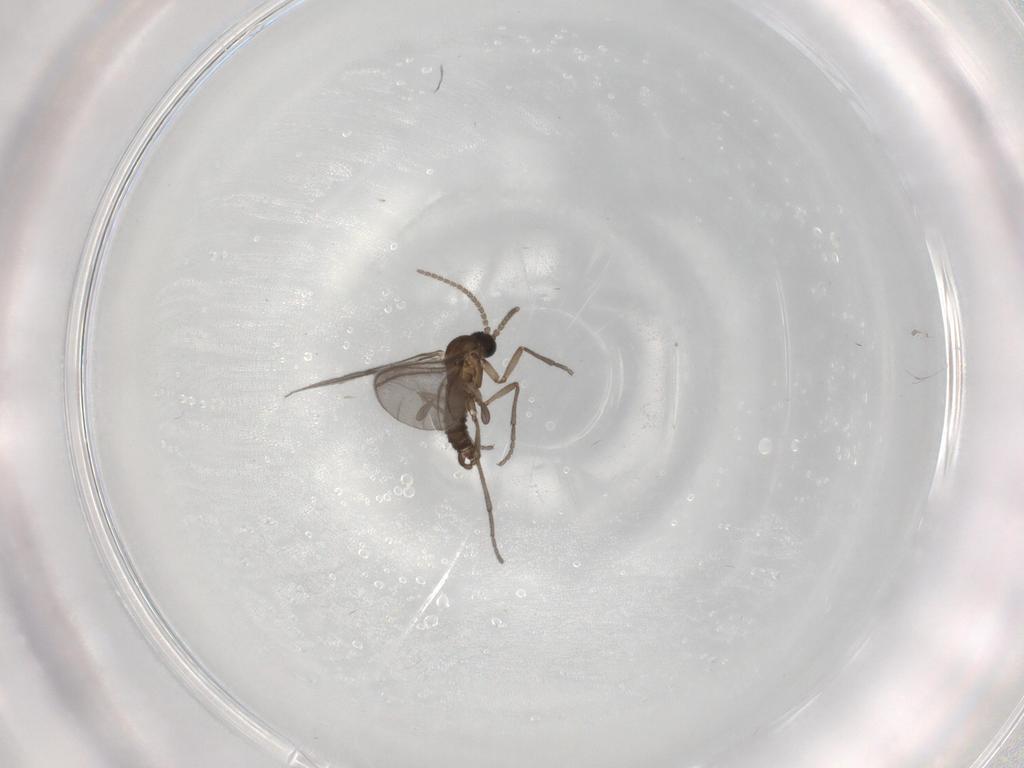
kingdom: Animalia
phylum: Arthropoda
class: Insecta
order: Diptera
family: Sciaridae
